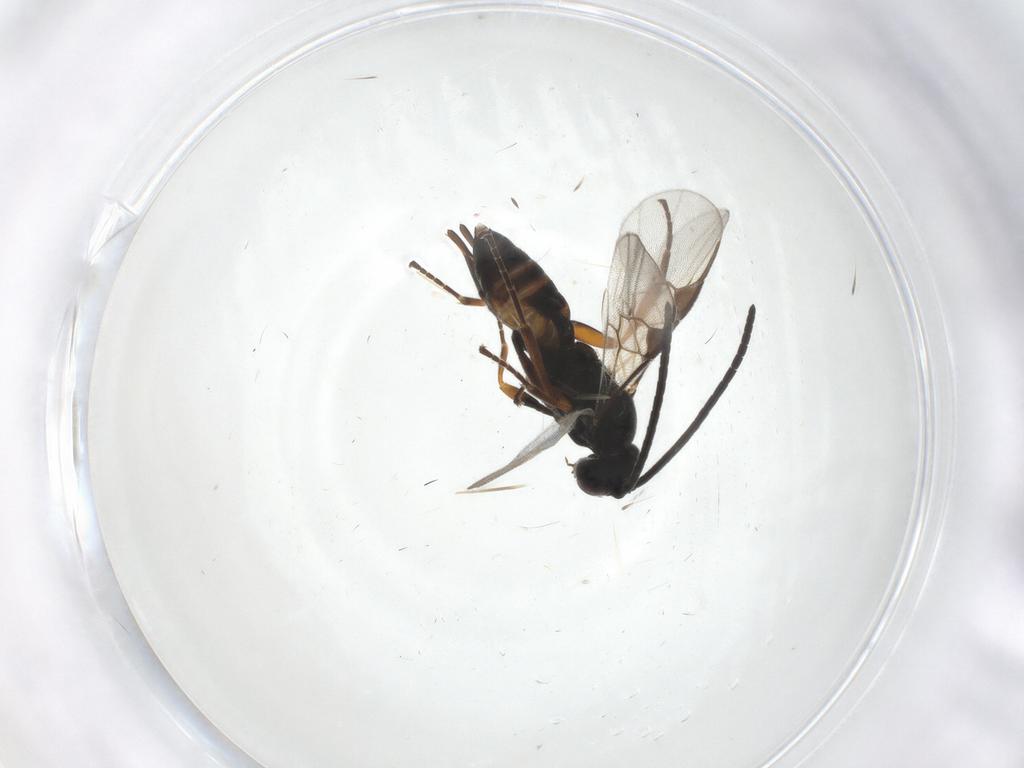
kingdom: Animalia
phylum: Arthropoda
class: Insecta
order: Hymenoptera
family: Braconidae
